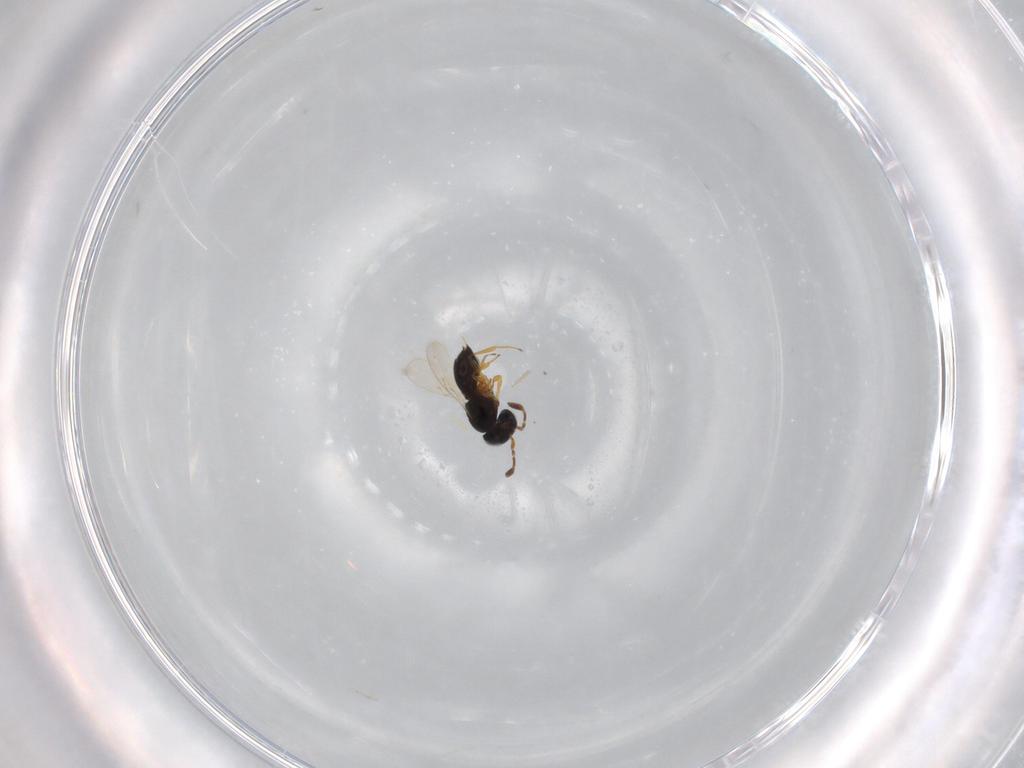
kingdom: Animalia
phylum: Arthropoda
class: Insecta
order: Hymenoptera
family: Scelionidae
